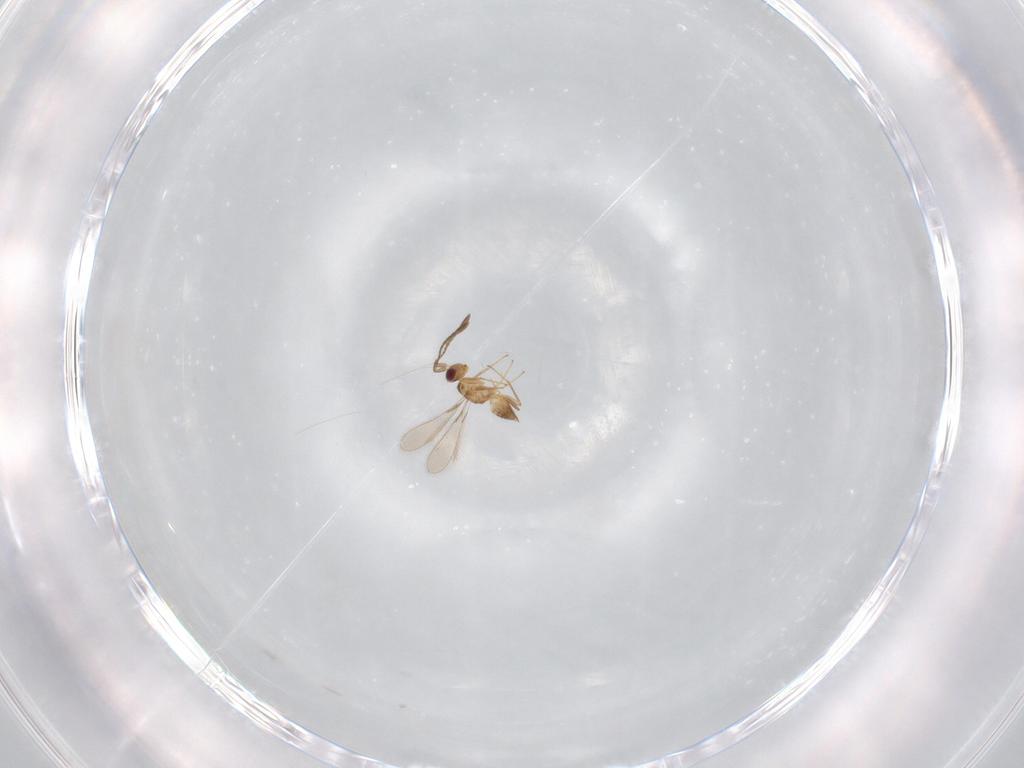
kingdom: Animalia
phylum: Arthropoda
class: Insecta
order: Hymenoptera
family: Mymaridae
